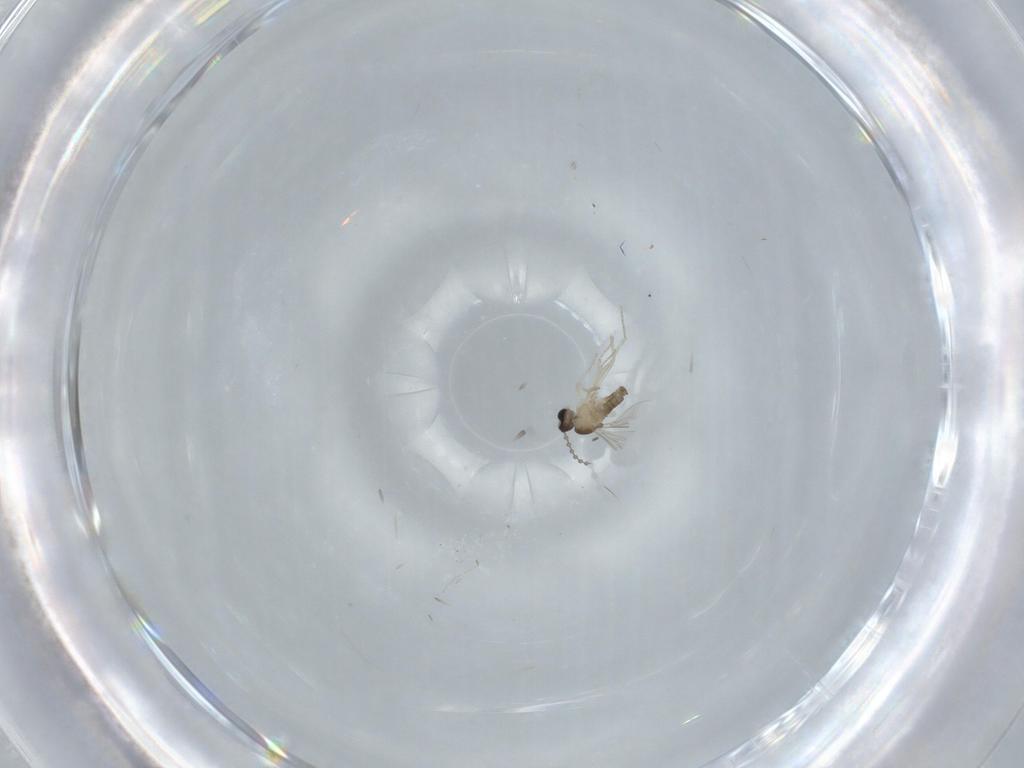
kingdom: Animalia
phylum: Arthropoda
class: Insecta
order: Diptera
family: Cecidomyiidae
